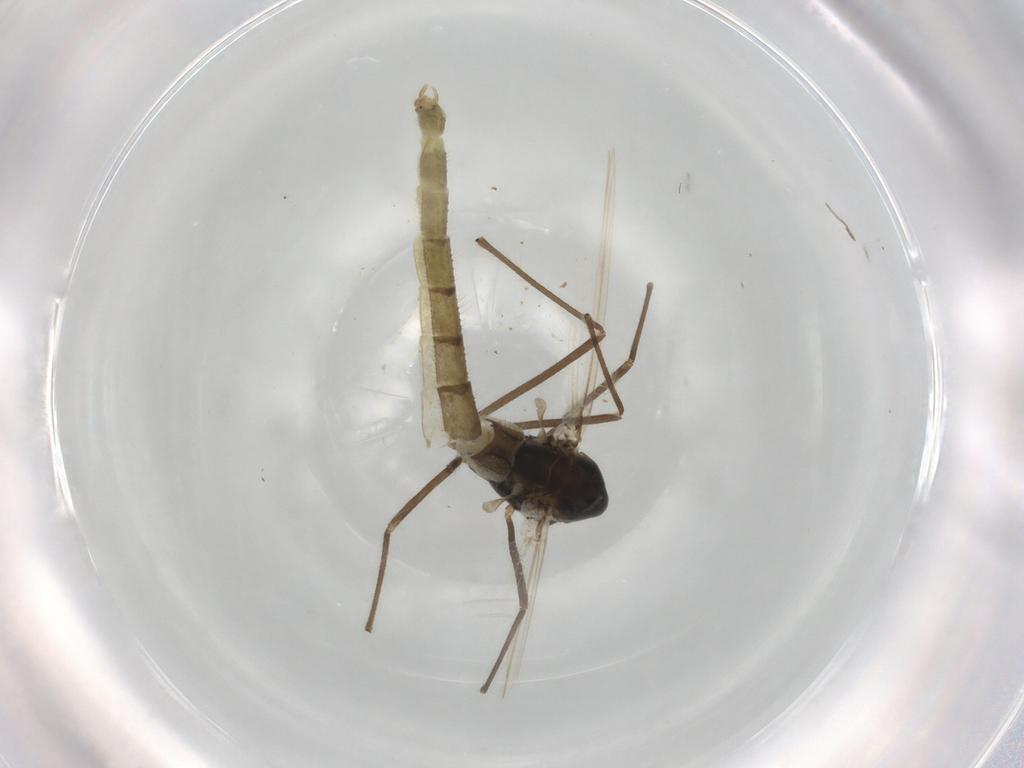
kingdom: Animalia
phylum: Arthropoda
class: Insecta
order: Diptera
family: Chironomidae
